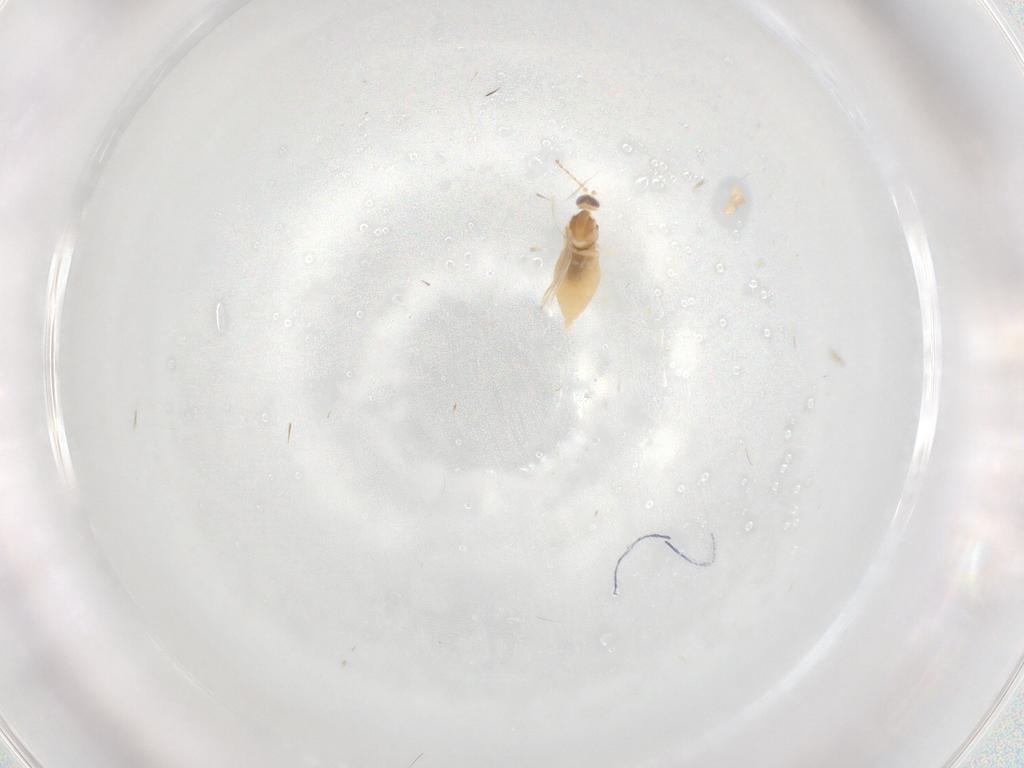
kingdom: Animalia
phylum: Arthropoda
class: Insecta
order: Diptera
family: Cecidomyiidae
